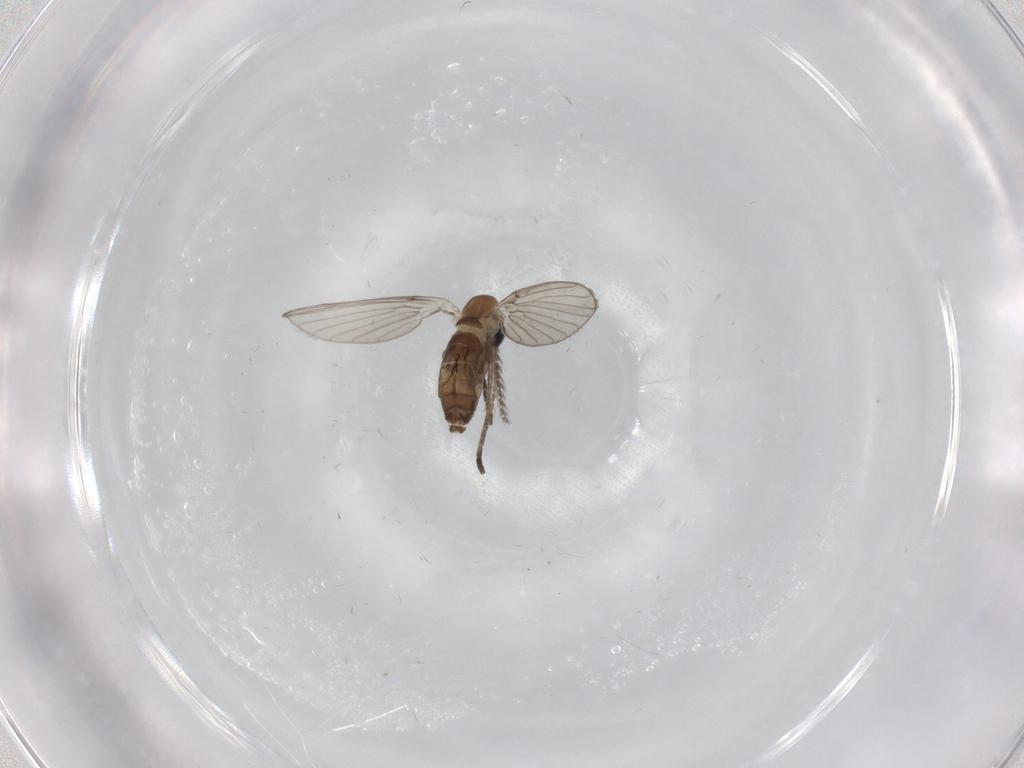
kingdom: Animalia
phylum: Arthropoda
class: Insecta
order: Diptera
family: Psychodidae
